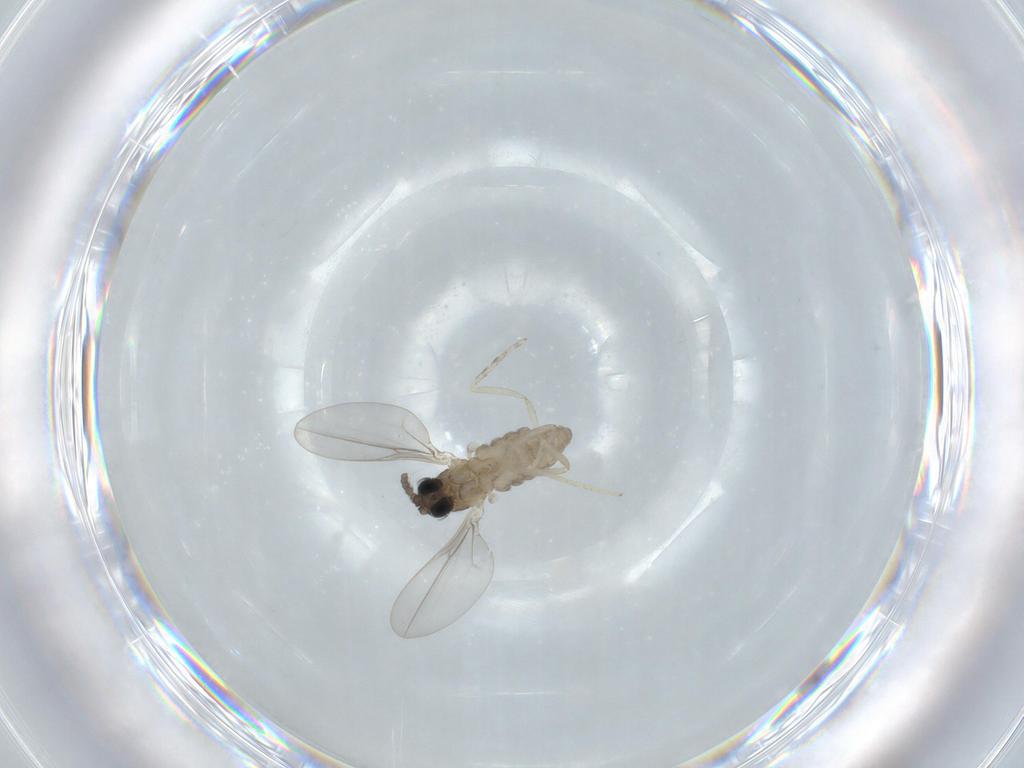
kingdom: Animalia
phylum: Arthropoda
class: Insecta
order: Diptera
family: Cecidomyiidae
